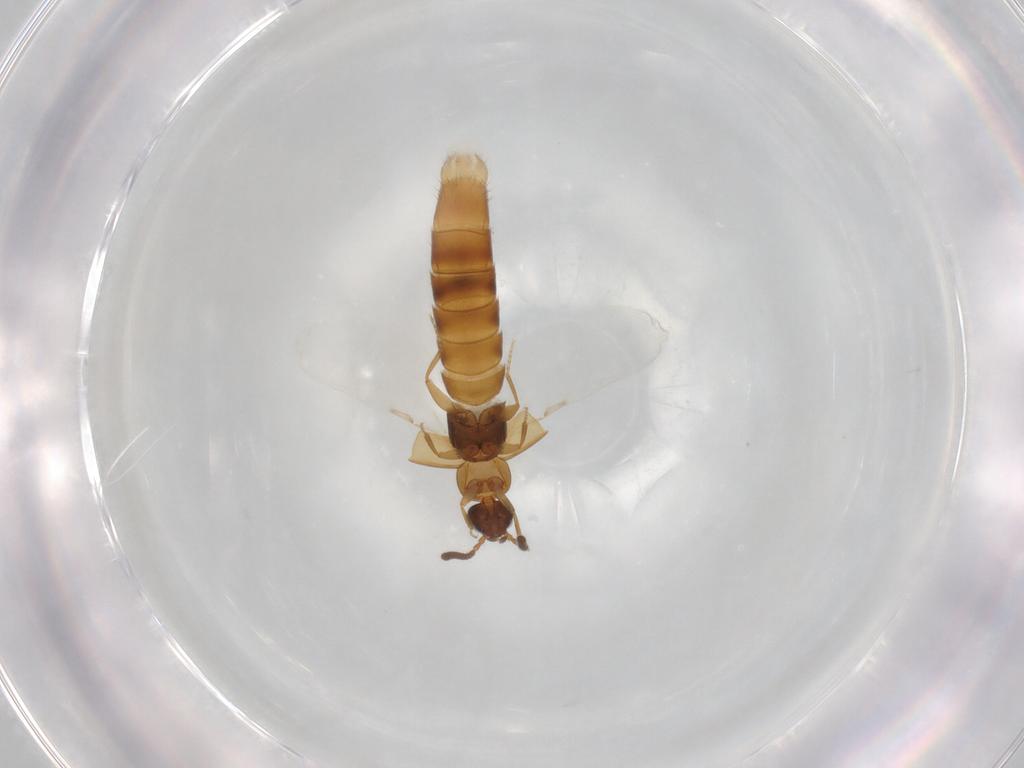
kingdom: Animalia
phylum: Arthropoda
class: Insecta
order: Coleoptera
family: Staphylinidae
